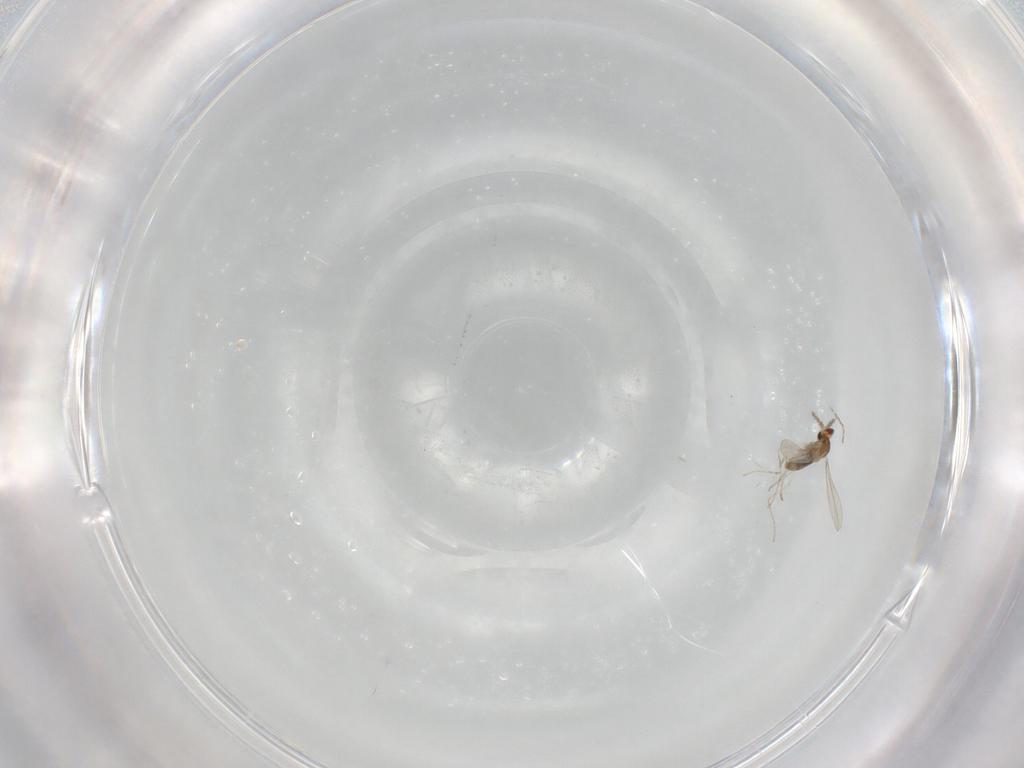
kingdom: Animalia
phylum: Arthropoda
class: Insecta
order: Diptera
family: Cecidomyiidae
